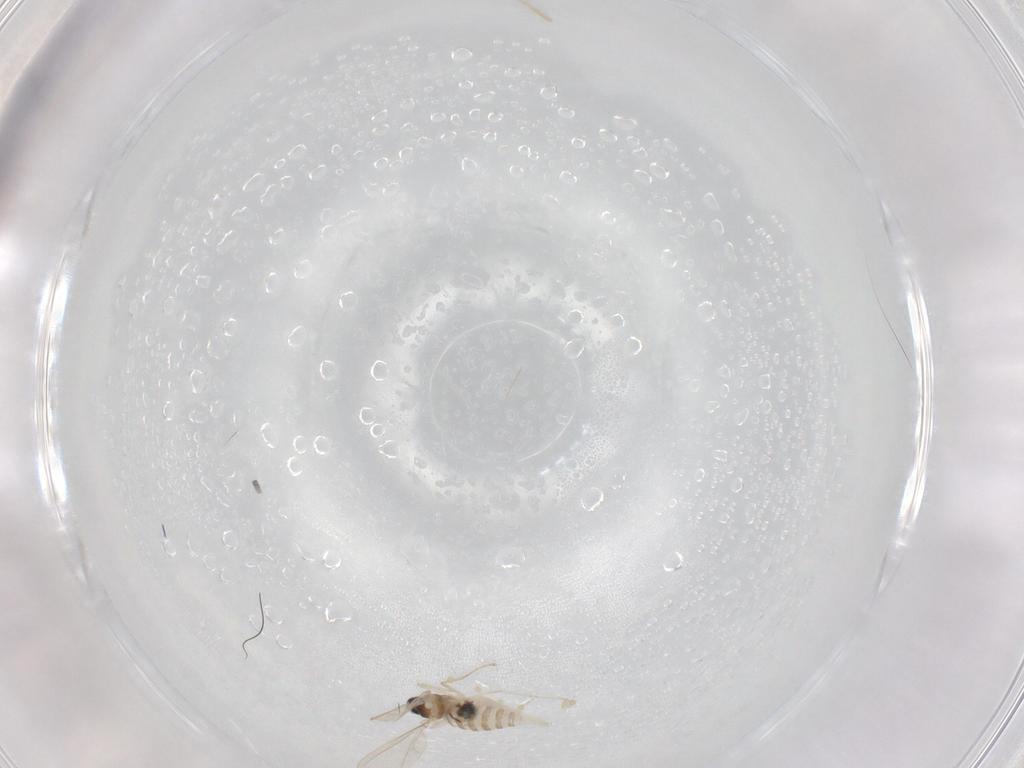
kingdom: Animalia
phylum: Arthropoda
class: Insecta
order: Diptera
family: Cecidomyiidae
